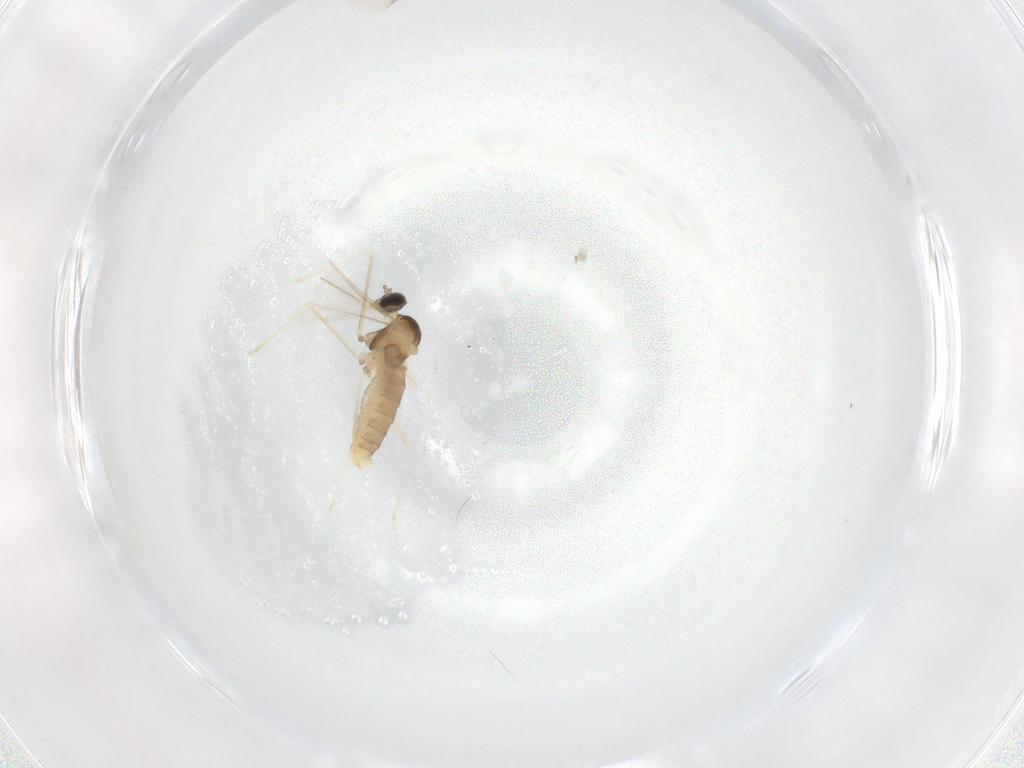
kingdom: Animalia
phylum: Arthropoda
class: Insecta
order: Diptera
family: Cecidomyiidae
